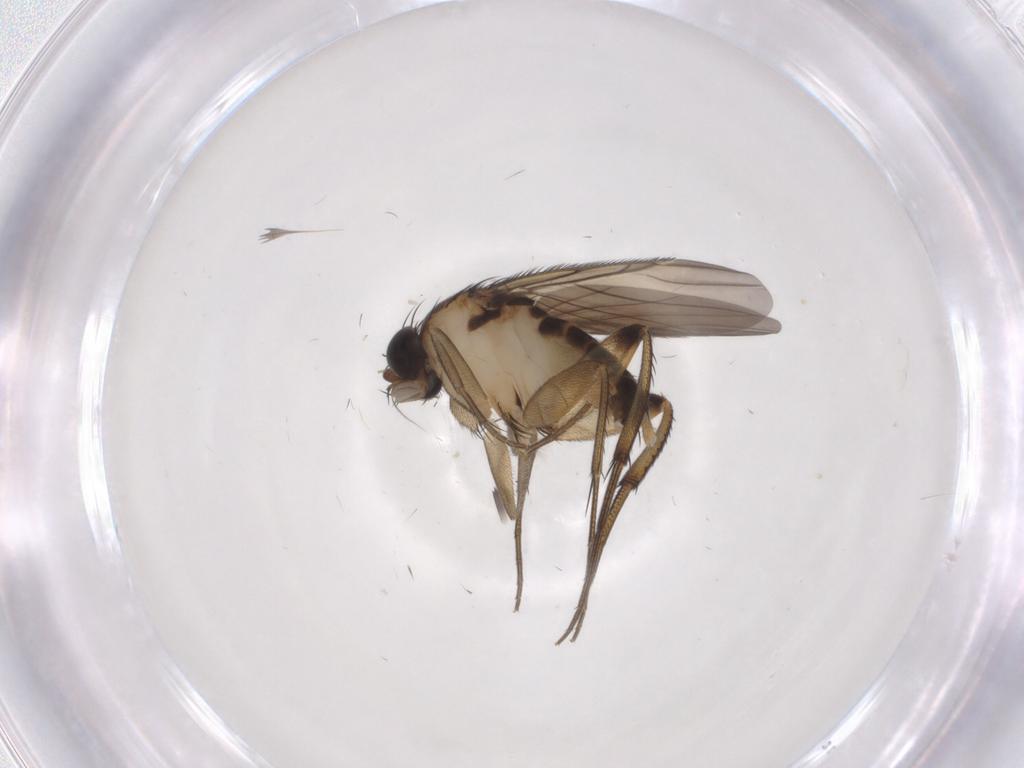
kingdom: Animalia
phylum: Arthropoda
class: Insecta
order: Diptera
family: Phoridae
